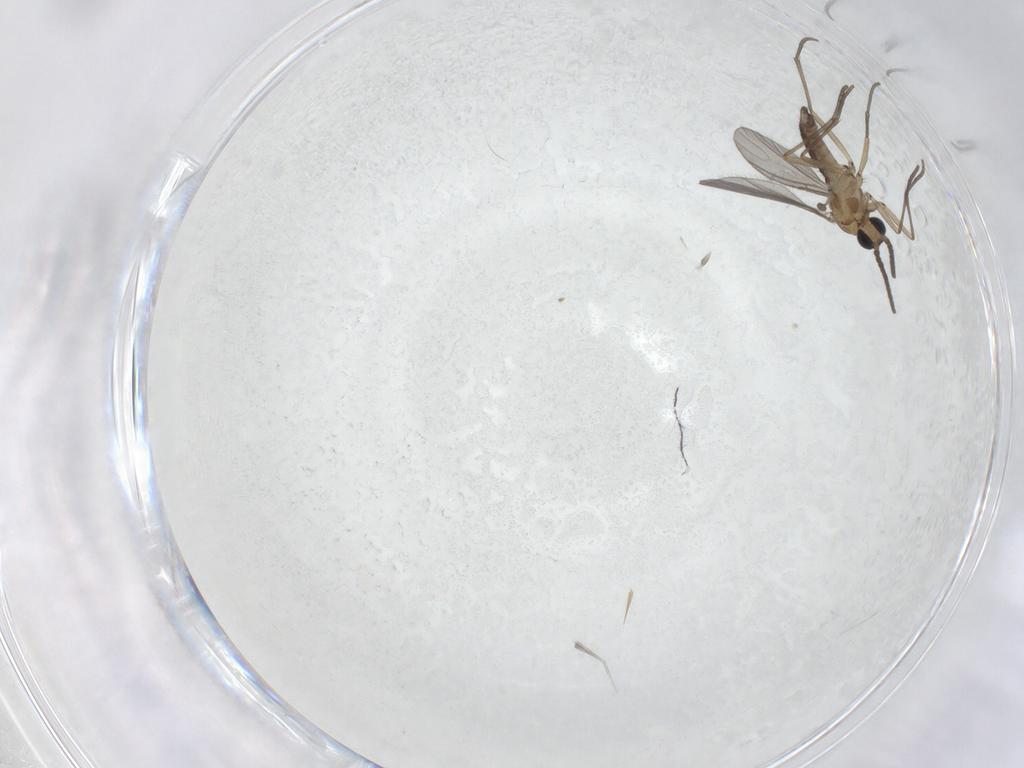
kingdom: Animalia
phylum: Arthropoda
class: Insecta
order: Diptera
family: Sciaridae
